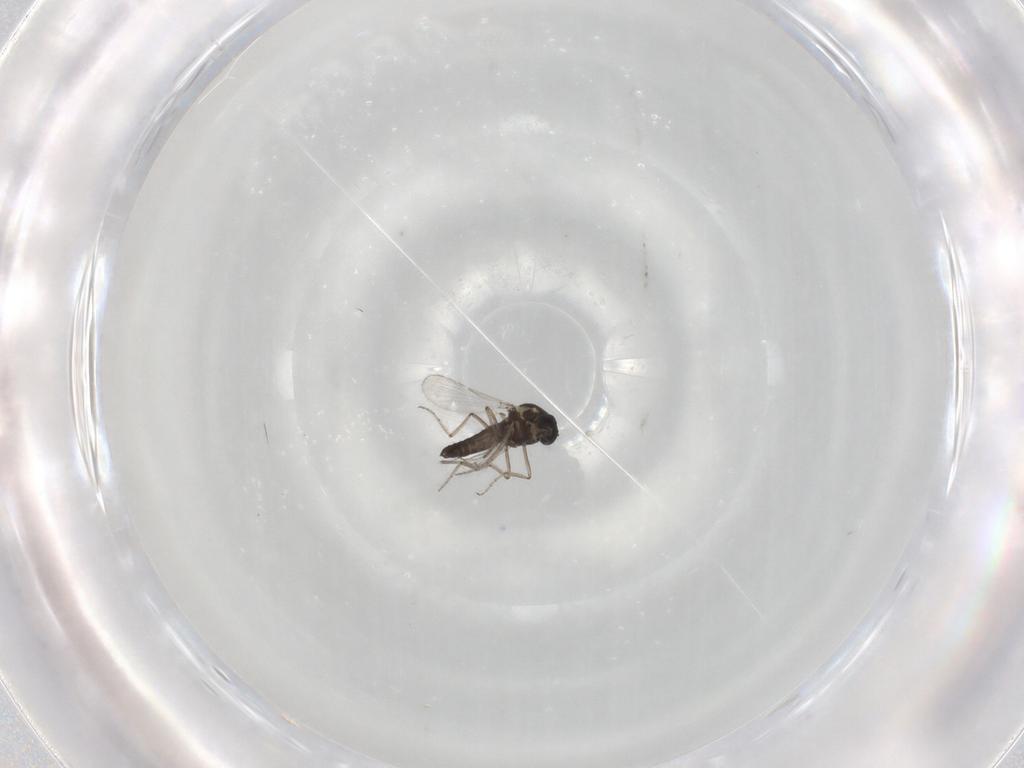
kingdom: Animalia
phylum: Arthropoda
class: Insecta
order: Diptera
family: Ceratopogonidae
